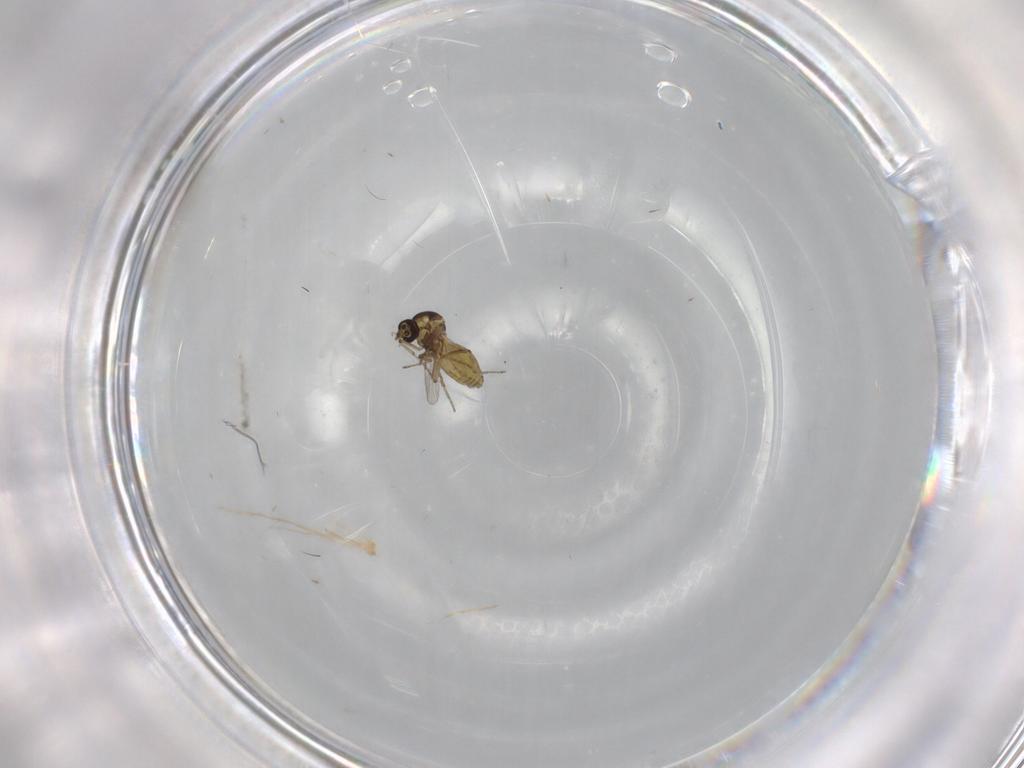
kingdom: Animalia
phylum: Arthropoda
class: Insecta
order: Diptera
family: Ceratopogonidae
